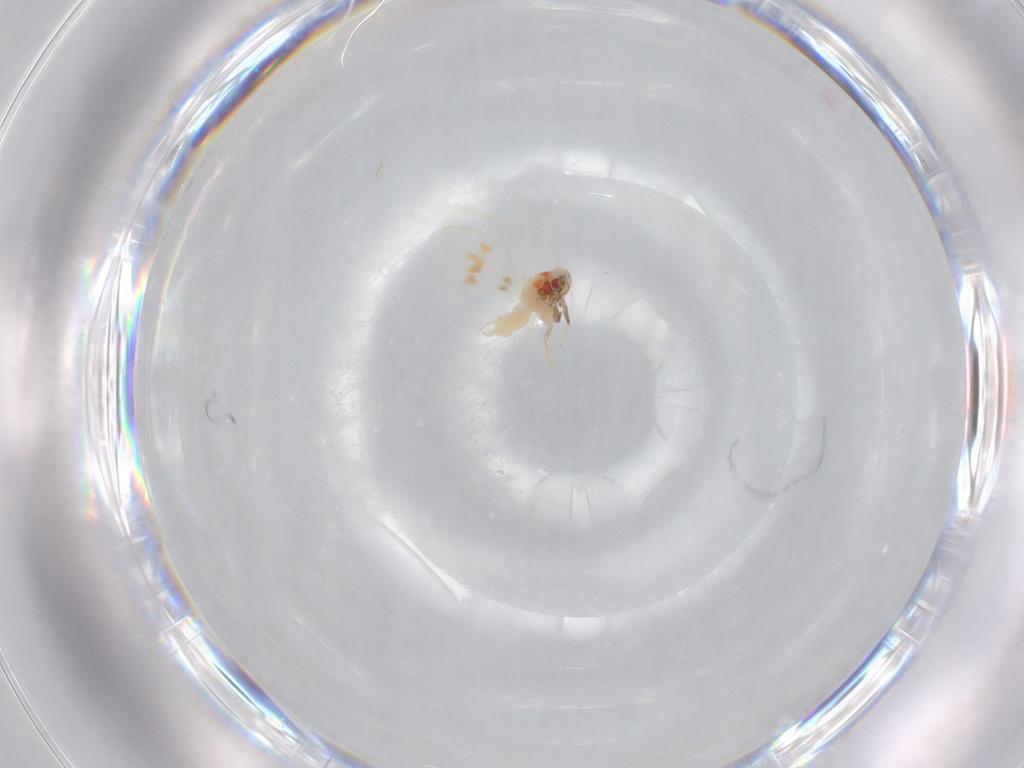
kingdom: Animalia
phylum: Arthropoda
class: Insecta
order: Hemiptera
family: Aleyrodidae
